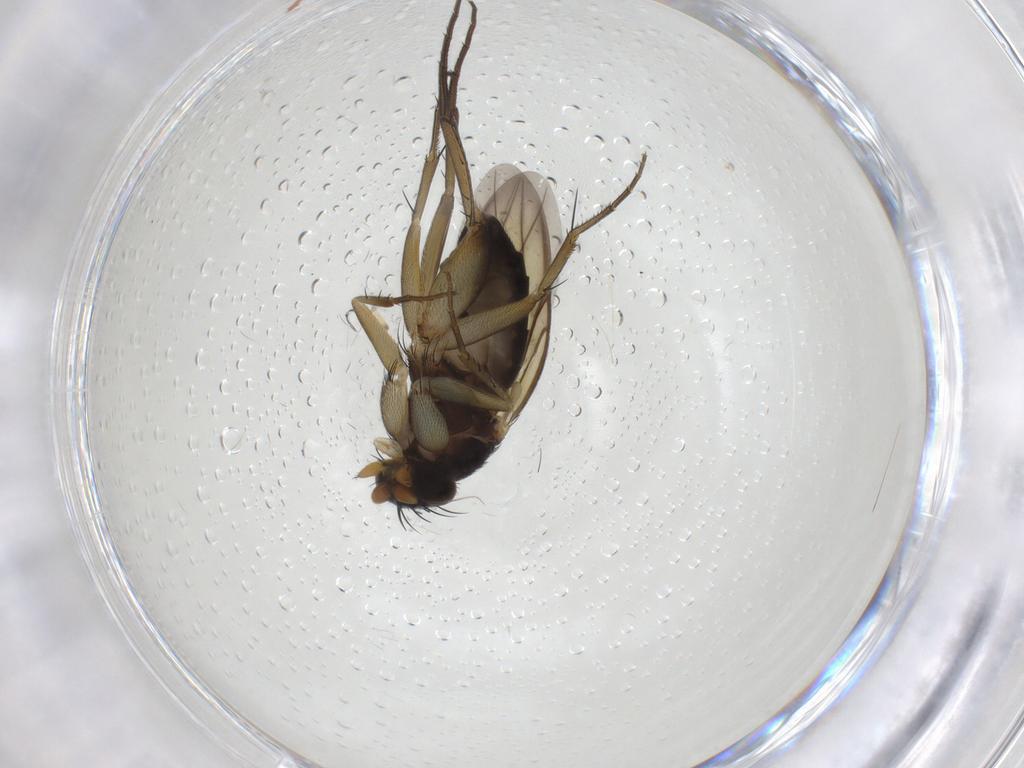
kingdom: Animalia
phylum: Arthropoda
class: Insecta
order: Diptera
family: Phoridae
